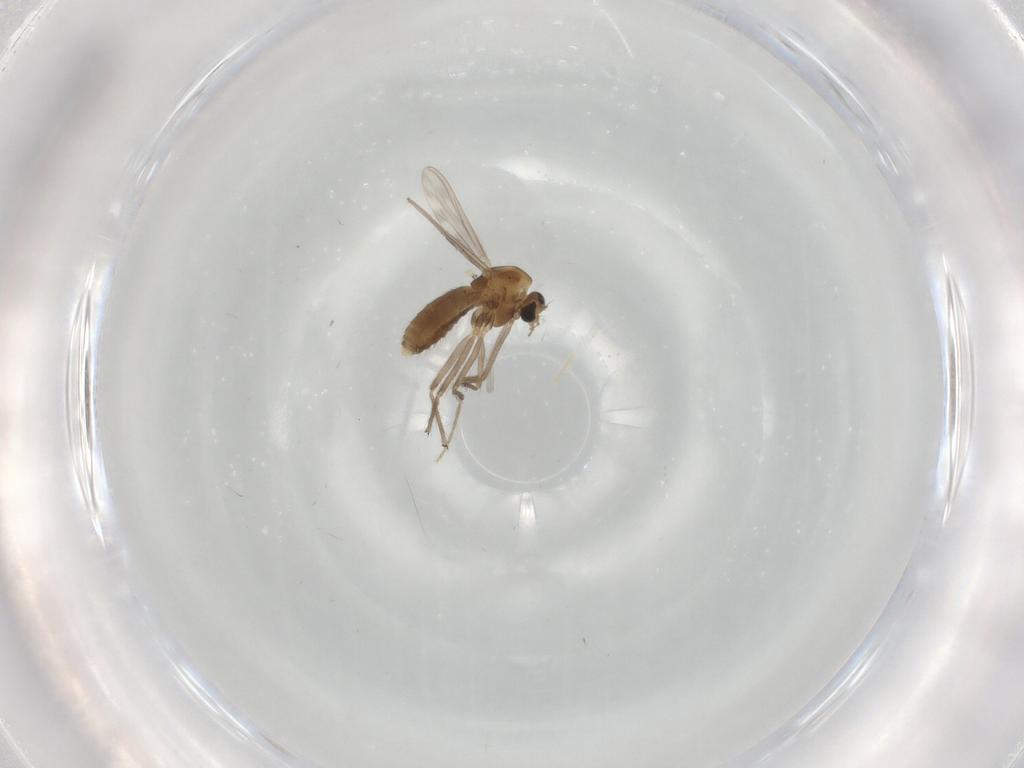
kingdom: Animalia
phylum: Arthropoda
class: Insecta
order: Diptera
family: Chironomidae
